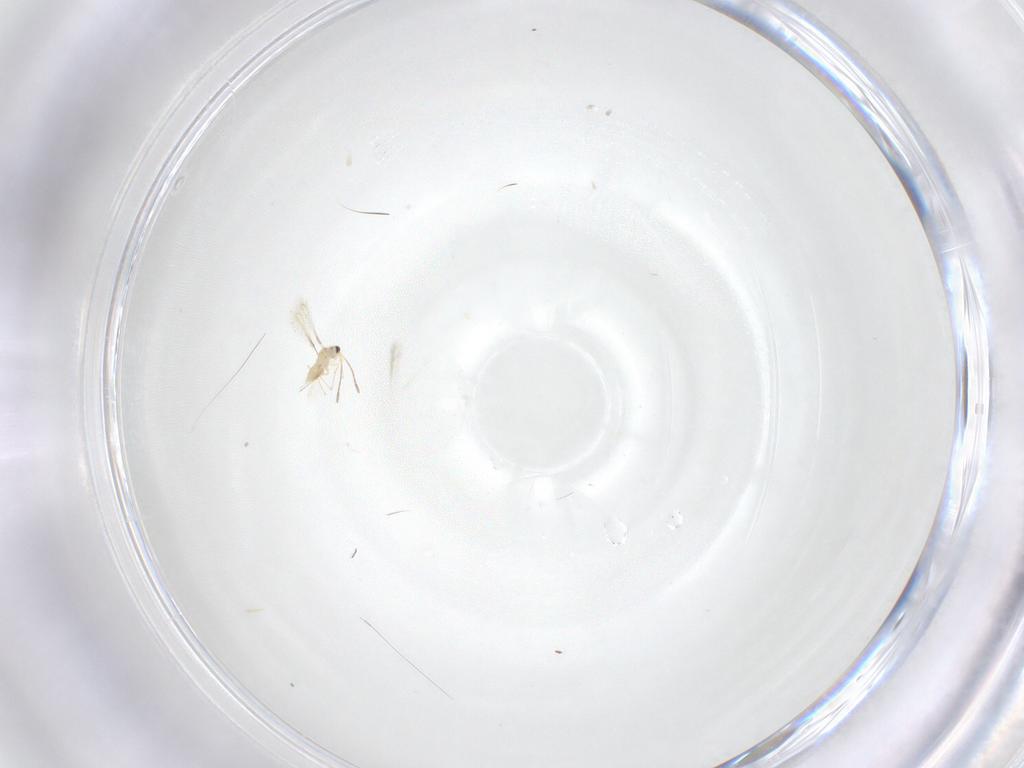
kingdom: Animalia
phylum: Arthropoda
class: Insecta
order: Hymenoptera
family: Mymaridae
